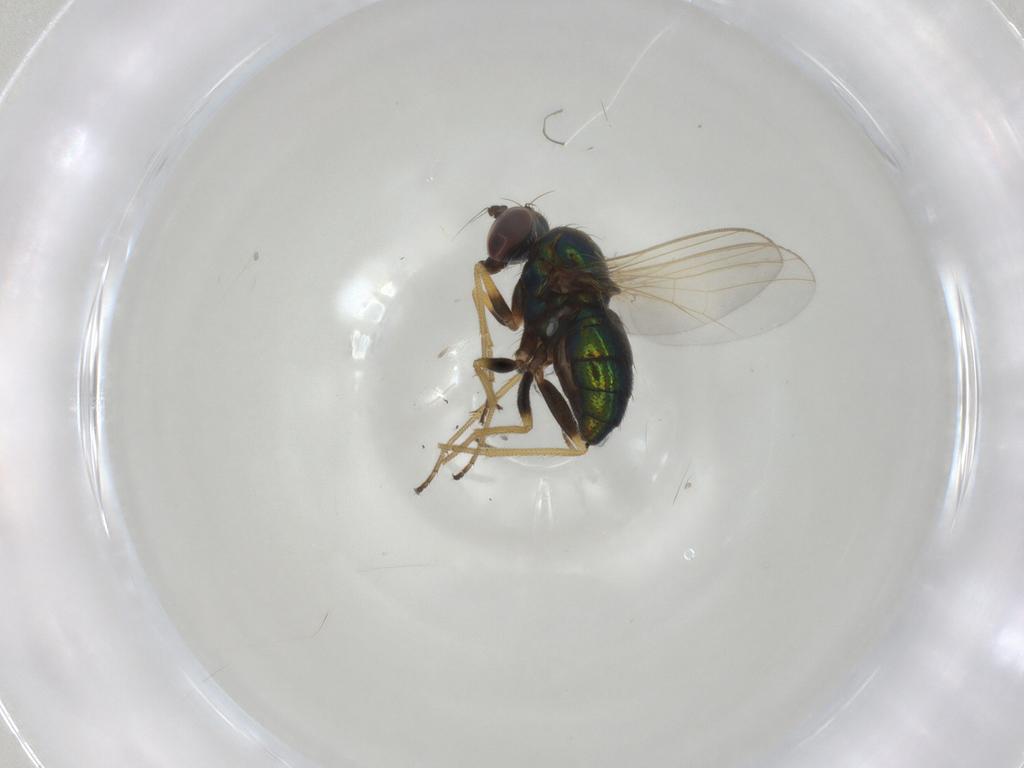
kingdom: Animalia
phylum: Arthropoda
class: Insecta
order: Diptera
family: Dolichopodidae
